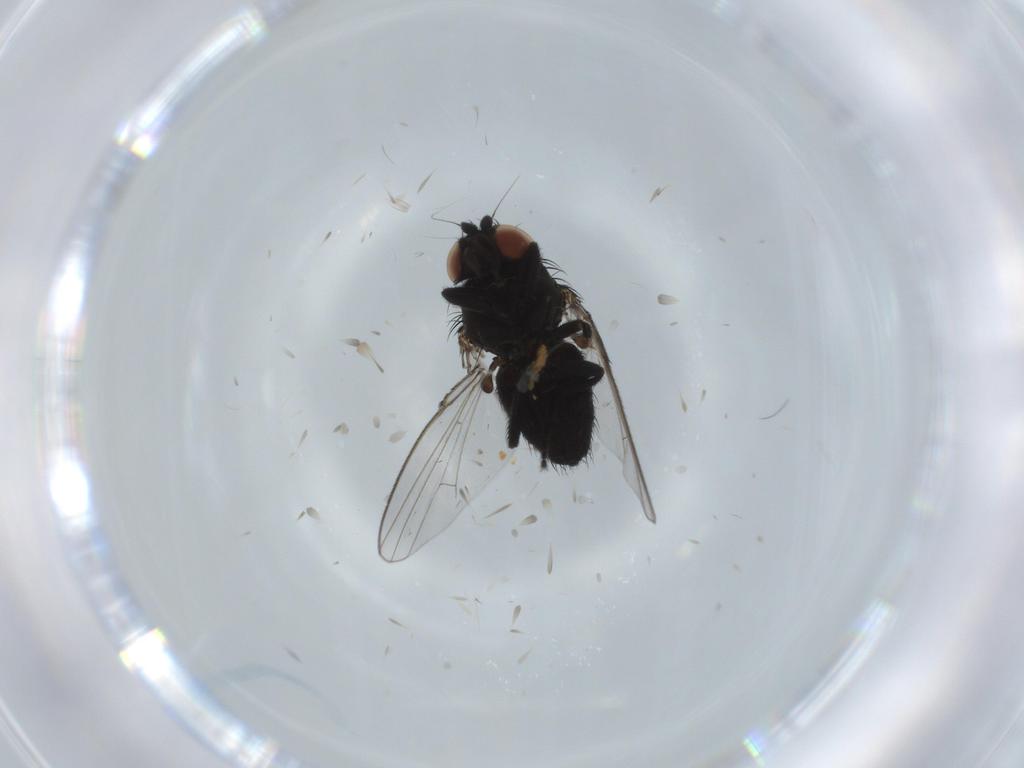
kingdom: Animalia
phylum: Arthropoda
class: Insecta
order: Diptera
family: Milichiidae
